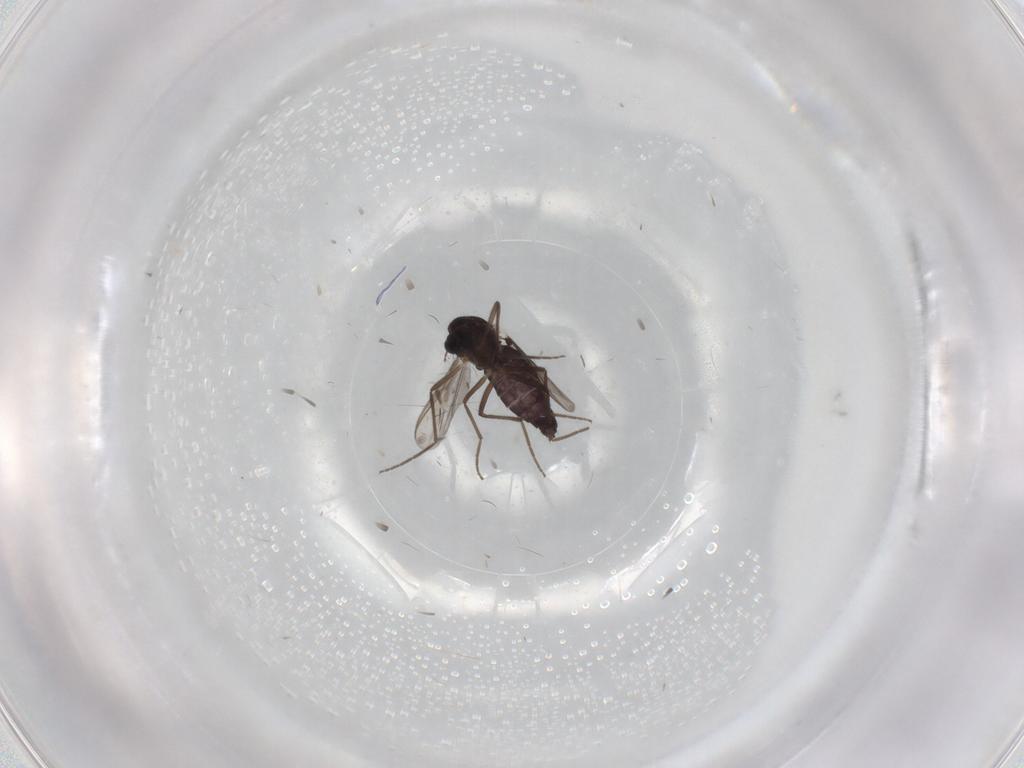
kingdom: Animalia
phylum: Arthropoda
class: Insecta
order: Diptera
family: Chironomidae
